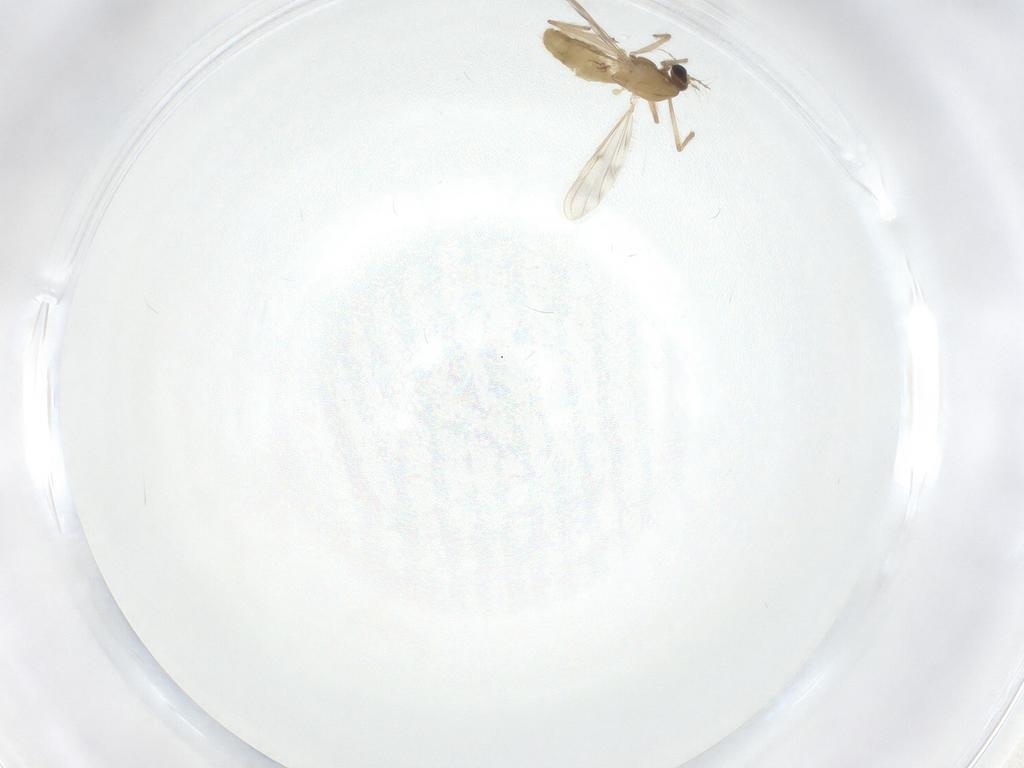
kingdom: Animalia
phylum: Arthropoda
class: Insecta
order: Diptera
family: Chironomidae
